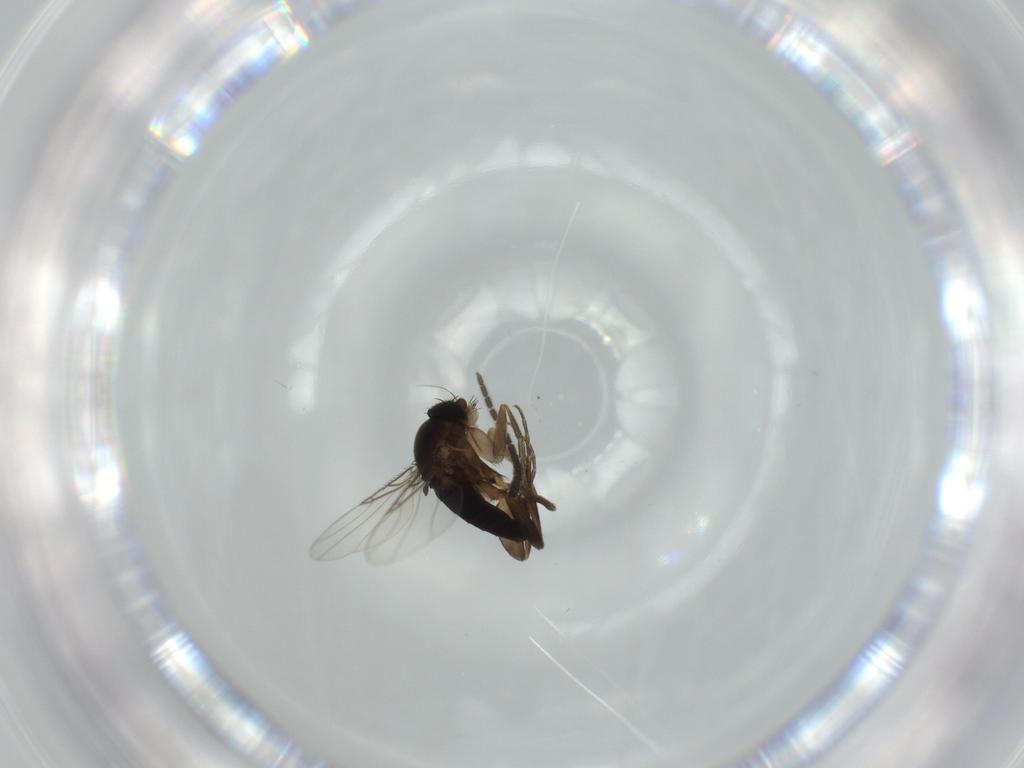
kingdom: Animalia
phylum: Arthropoda
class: Insecta
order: Diptera
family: Phoridae
